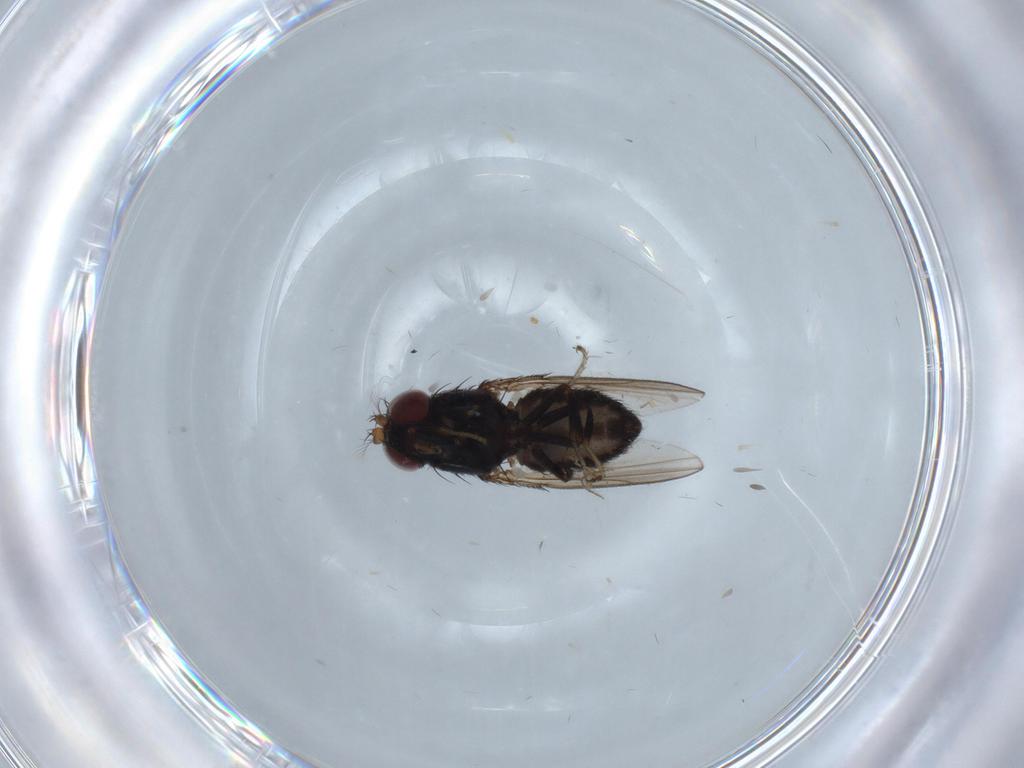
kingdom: Animalia
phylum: Arthropoda
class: Insecta
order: Diptera
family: Ephydridae
